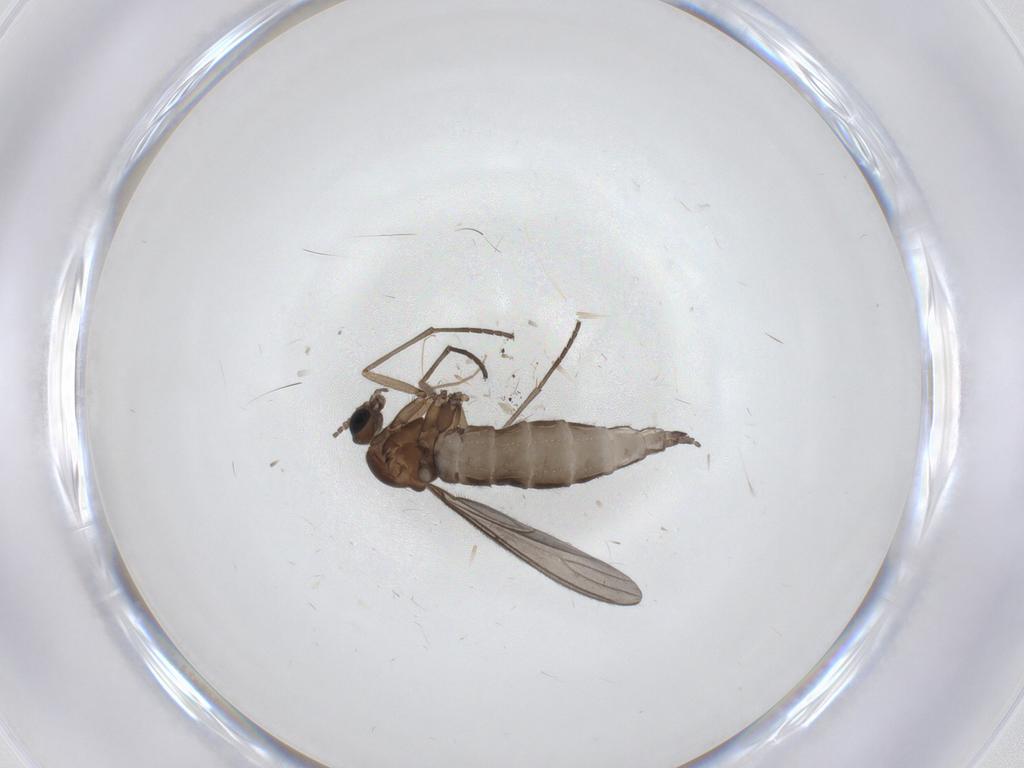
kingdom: Animalia
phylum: Arthropoda
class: Insecta
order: Diptera
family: Sciaridae
